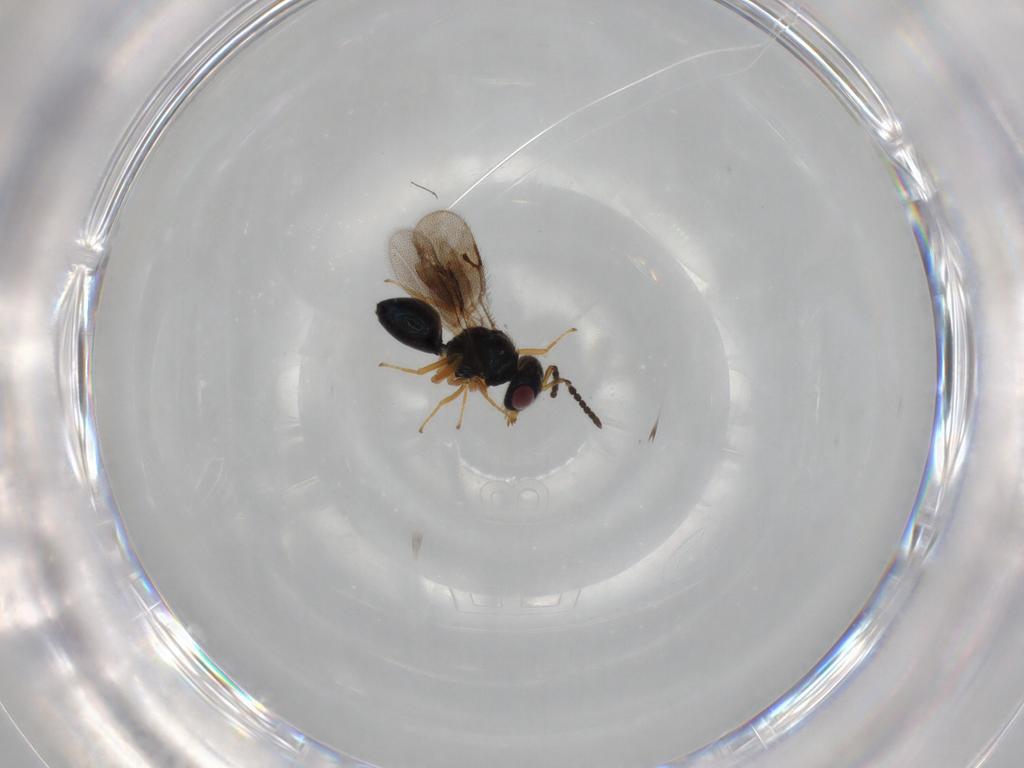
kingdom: Animalia
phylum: Arthropoda
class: Insecta
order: Hymenoptera
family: Pteromalidae
